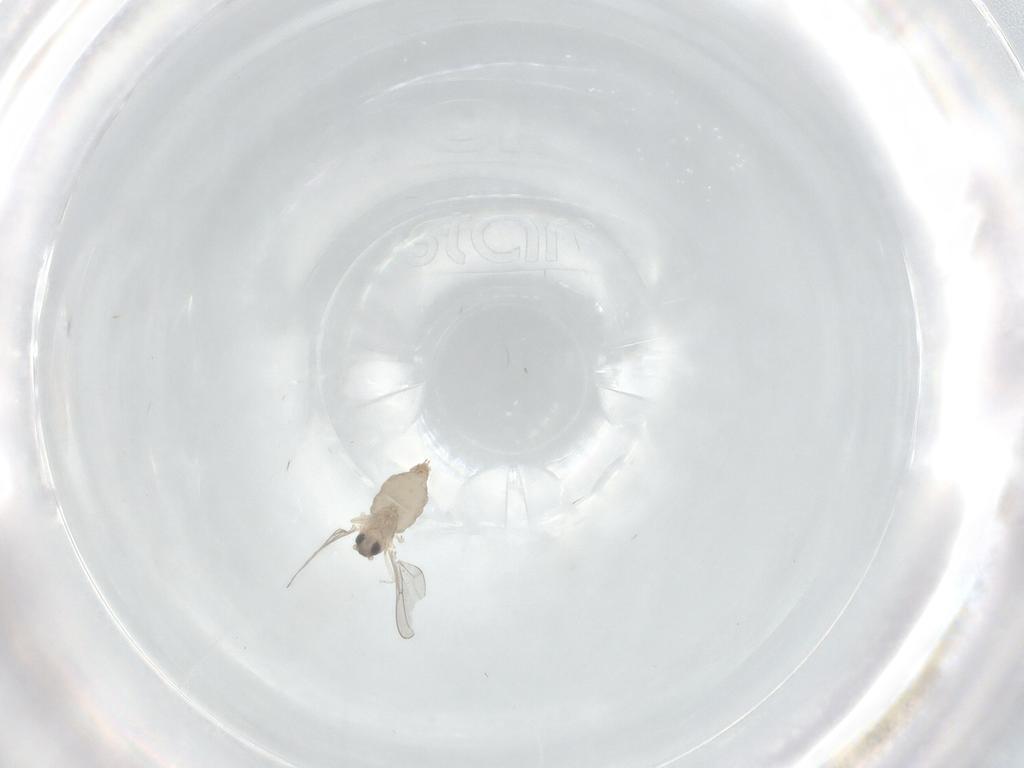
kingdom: Animalia
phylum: Arthropoda
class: Insecta
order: Diptera
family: Cecidomyiidae
